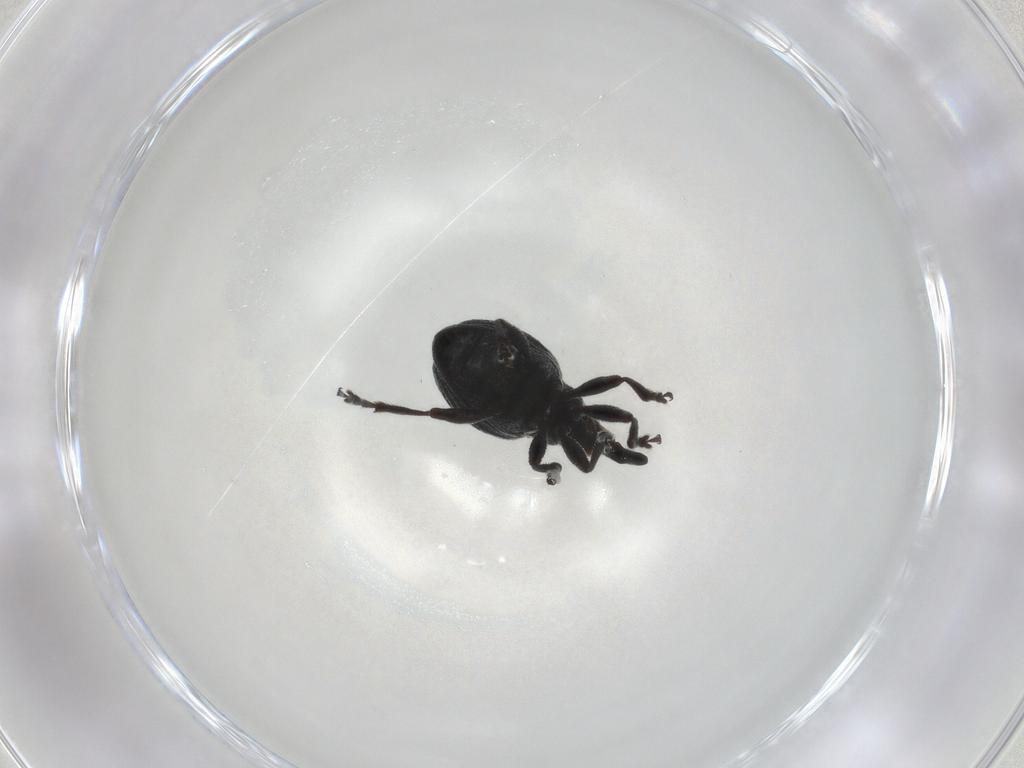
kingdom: Animalia
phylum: Arthropoda
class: Insecta
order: Coleoptera
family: Brentidae
